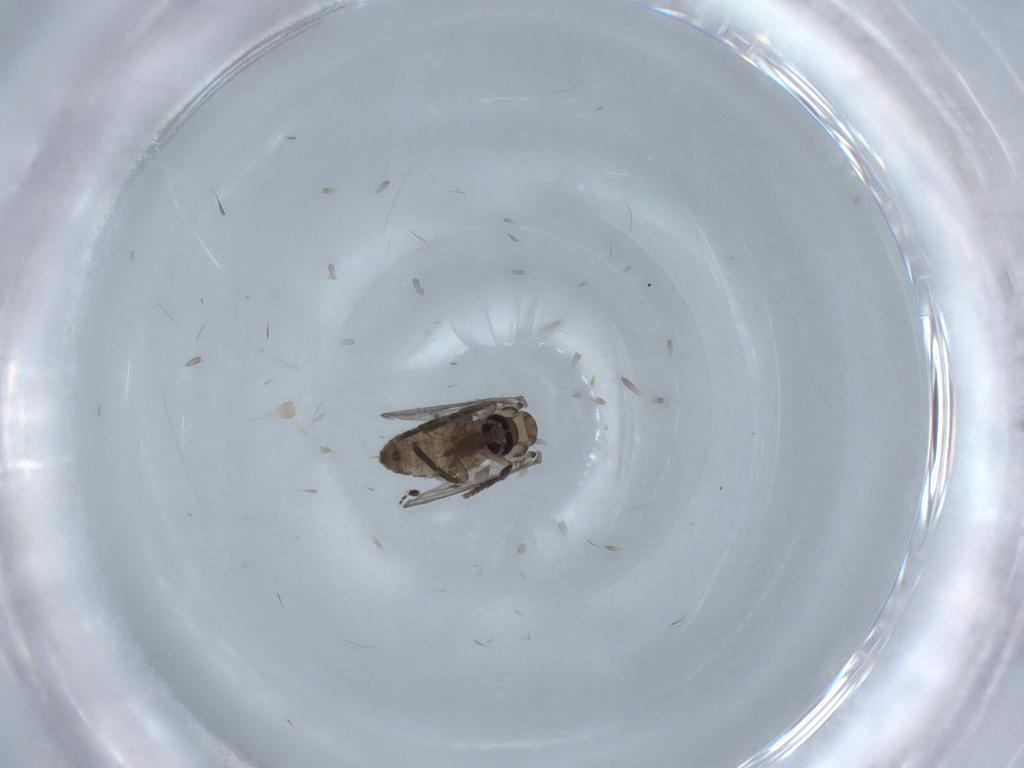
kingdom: Animalia
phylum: Arthropoda
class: Insecta
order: Diptera
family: Psychodidae
